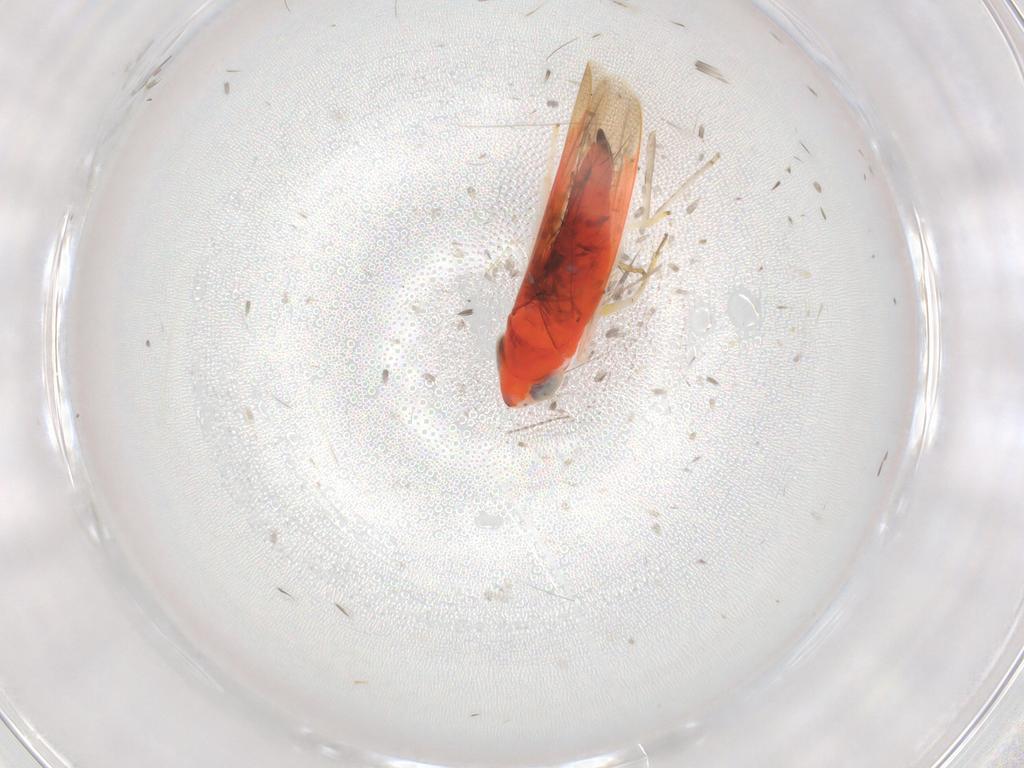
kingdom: Animalia
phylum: Arthropoda
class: Insecta
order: Hemiptera
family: Cicadellidae
